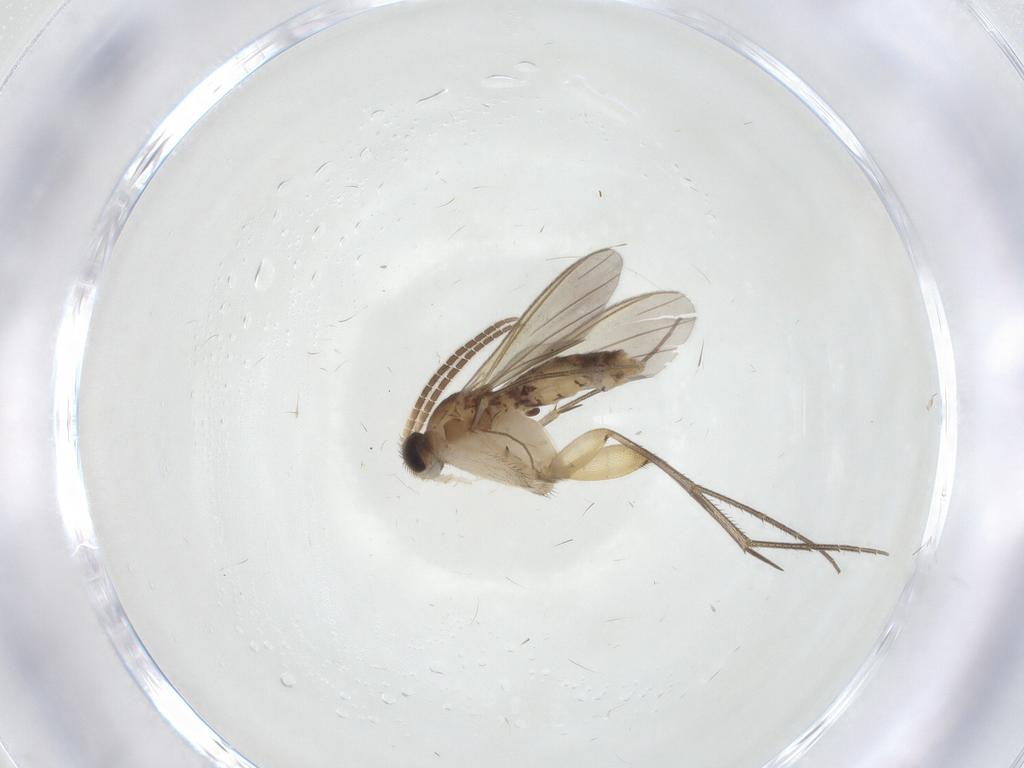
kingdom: Animalia
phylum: Arthropoda
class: Insecta
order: Diptera
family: Mycetophilidae
